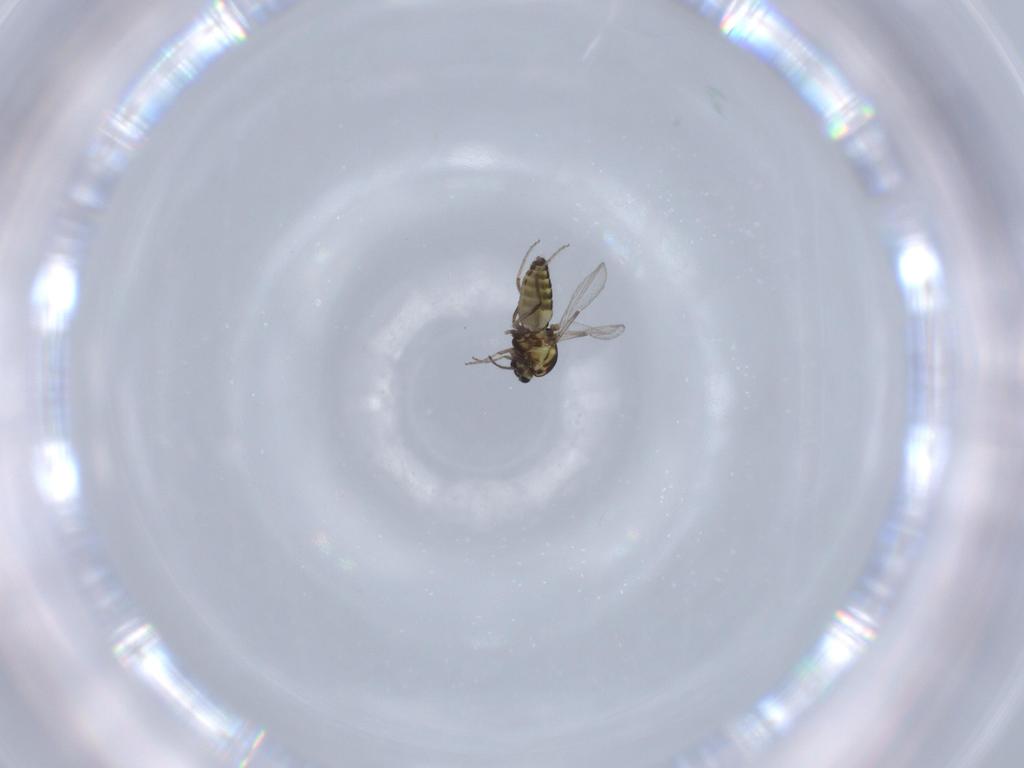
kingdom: Animalia
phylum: Arthropoda
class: Insecta
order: Diptera
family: Ceratopogonidae
